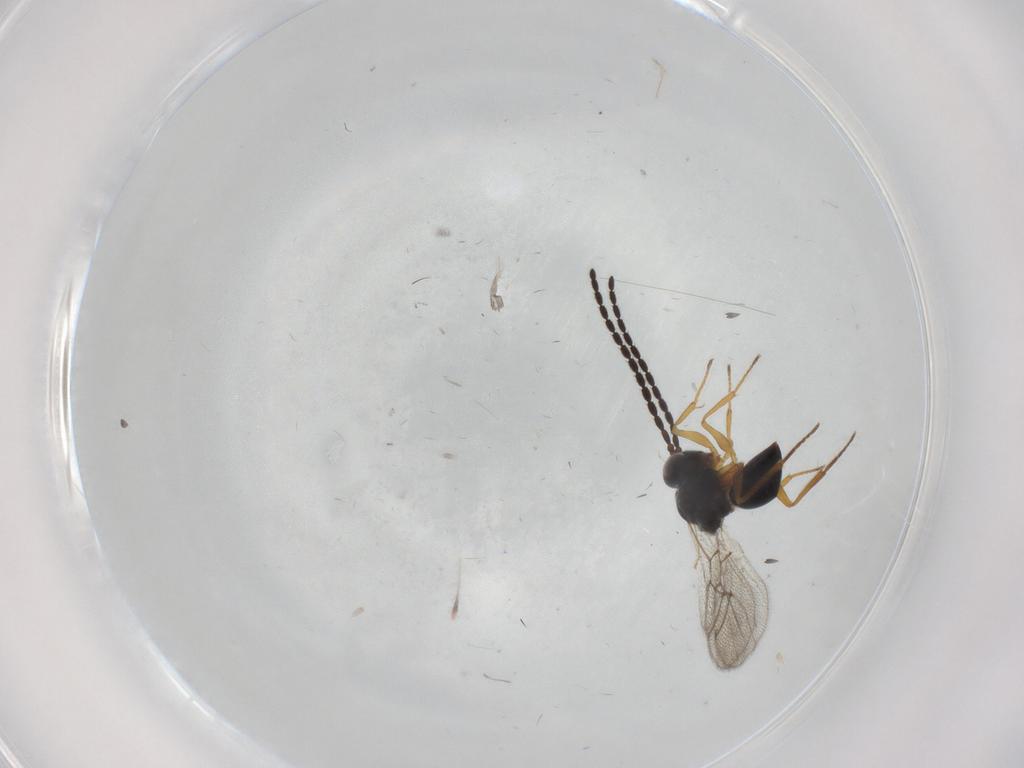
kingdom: Animalia
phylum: Arthropoda
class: Insecta
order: Hymenoptera
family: Figitidae
